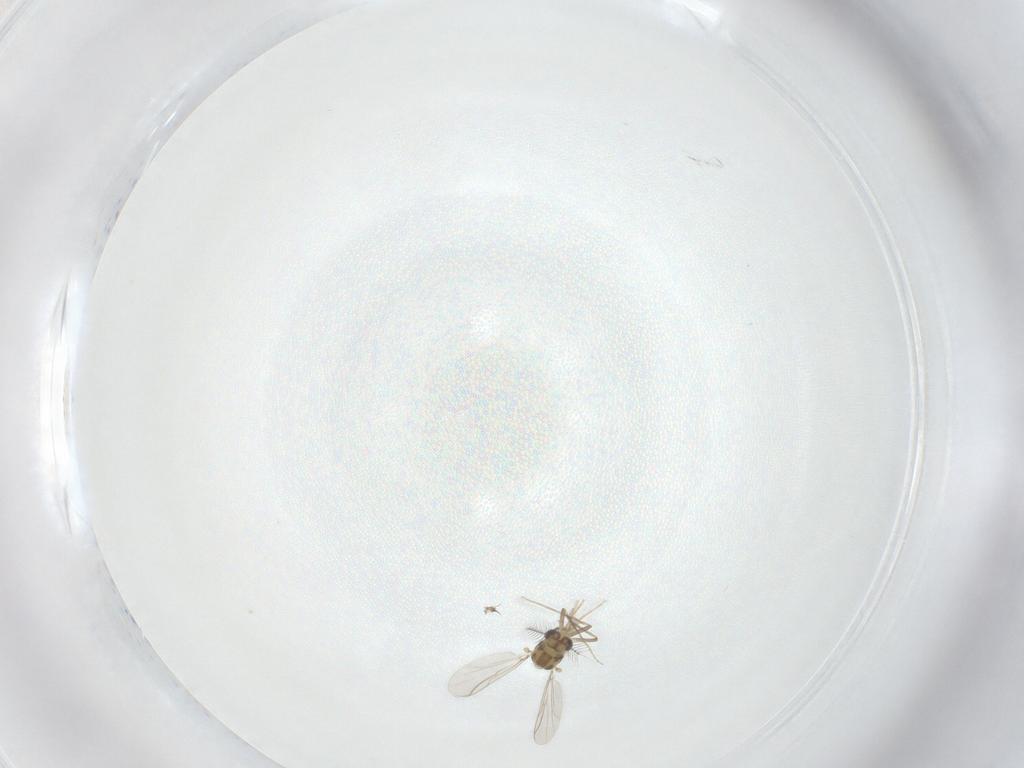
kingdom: Animalia
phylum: Arthropoda
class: Insecta
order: Diptera
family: Chironomidae
